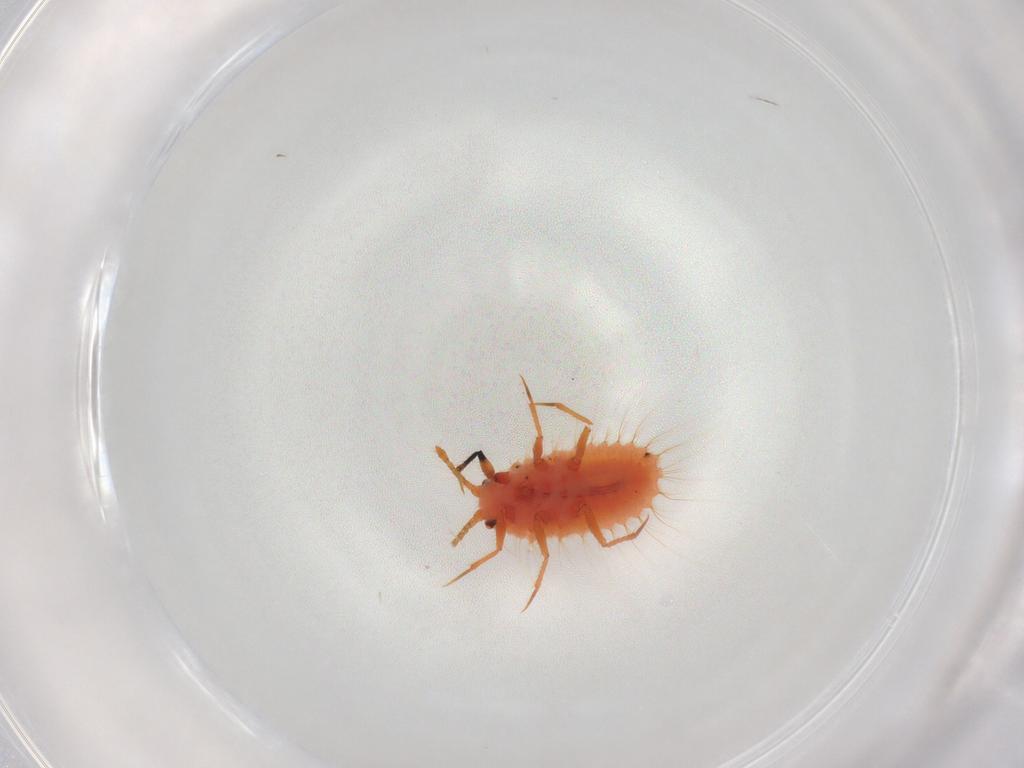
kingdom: Animalia
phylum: Arthropoda
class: Insecta
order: Hemiptera
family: Coccoidea_incertae_sedis
